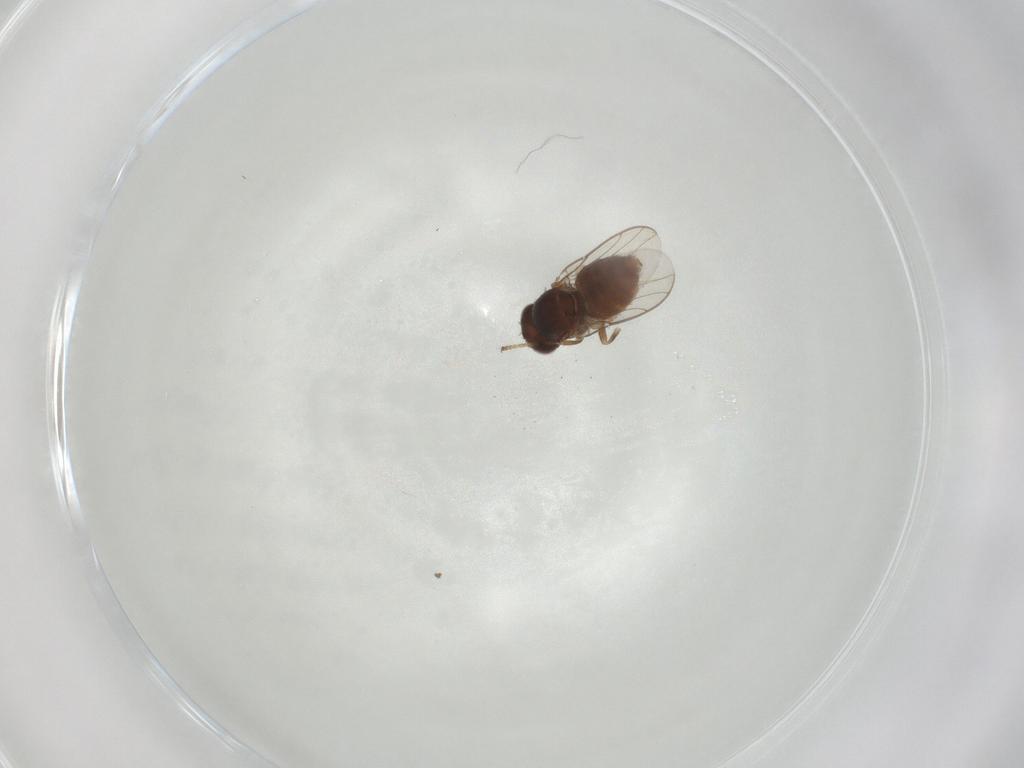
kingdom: Animalia
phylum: Arthropoda
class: Insecta
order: Diptera
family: Chloropidae
